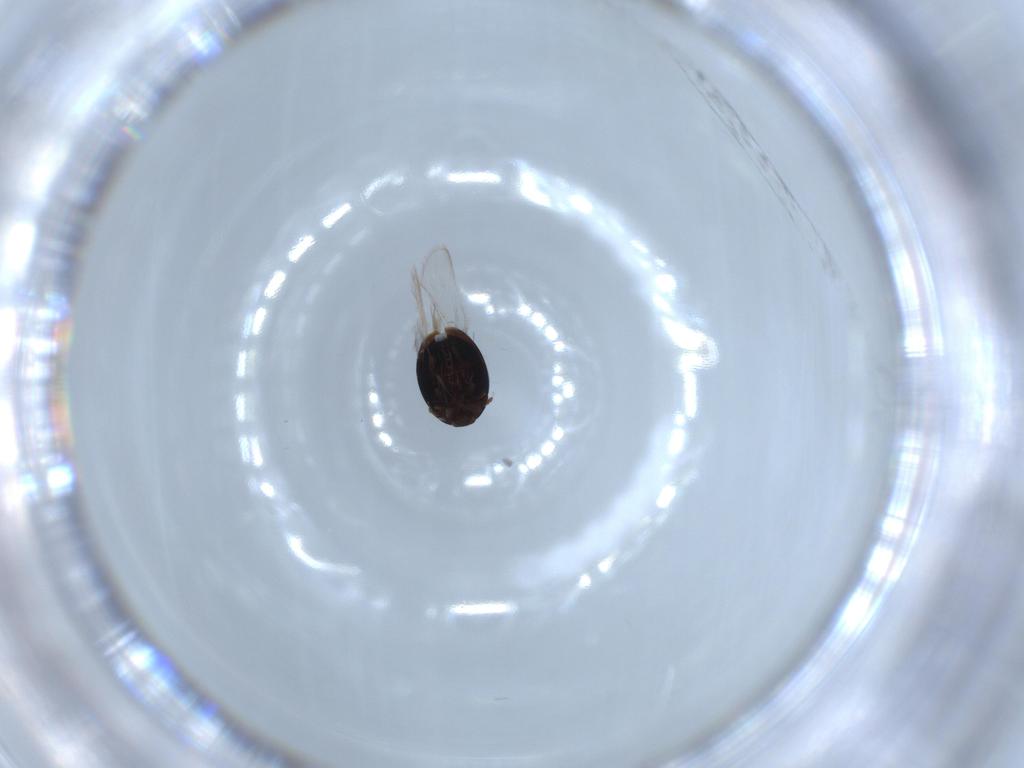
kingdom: Animalia
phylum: Arthropoda
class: Insecta
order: Coleoptera
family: Corylophidae
